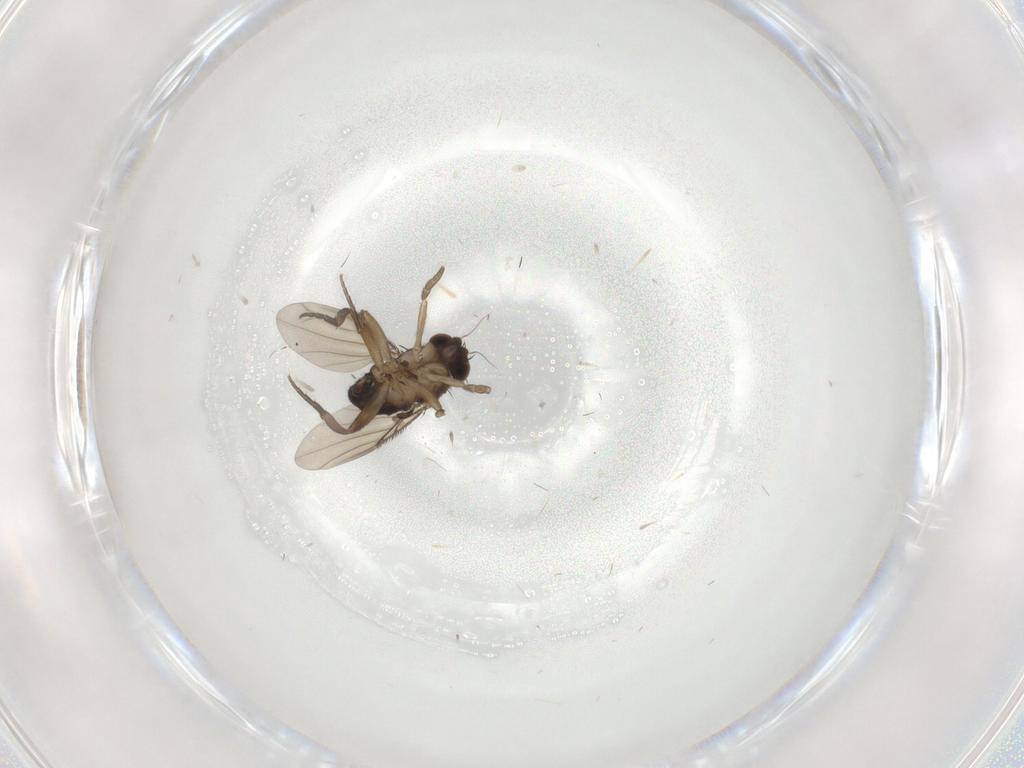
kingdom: Animalia
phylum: Arthropoda
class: Insecta
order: Diptera
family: Phoridae
